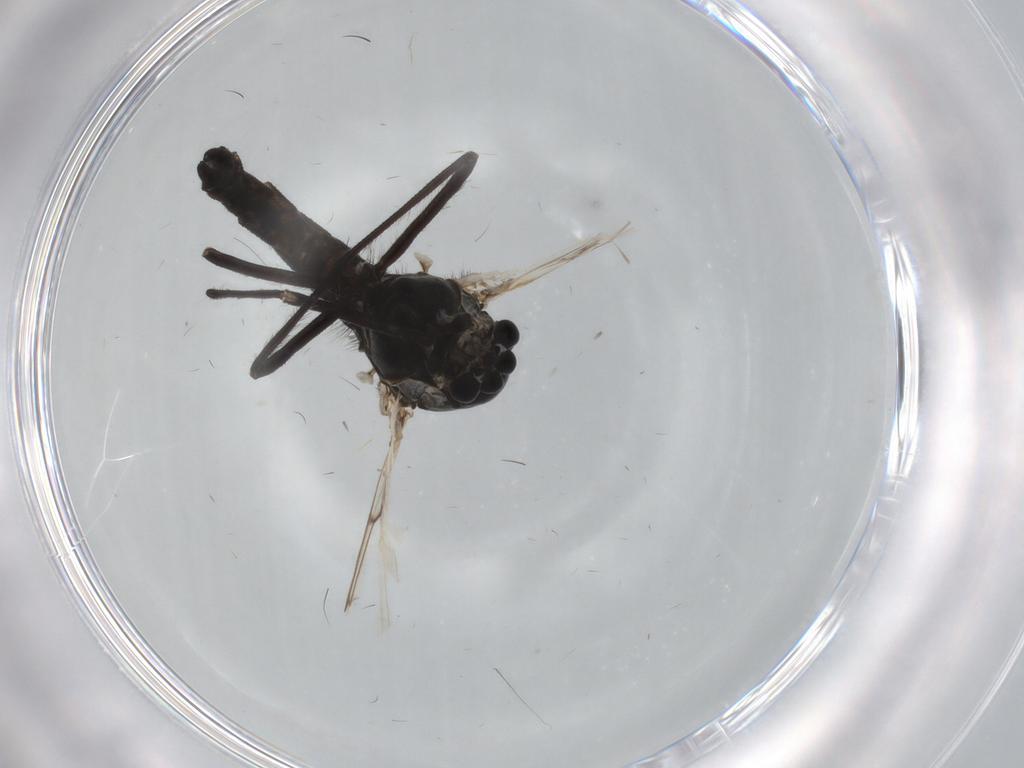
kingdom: Animalia
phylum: Arthropoda
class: Insecta
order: Diptera
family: Chironomidae
